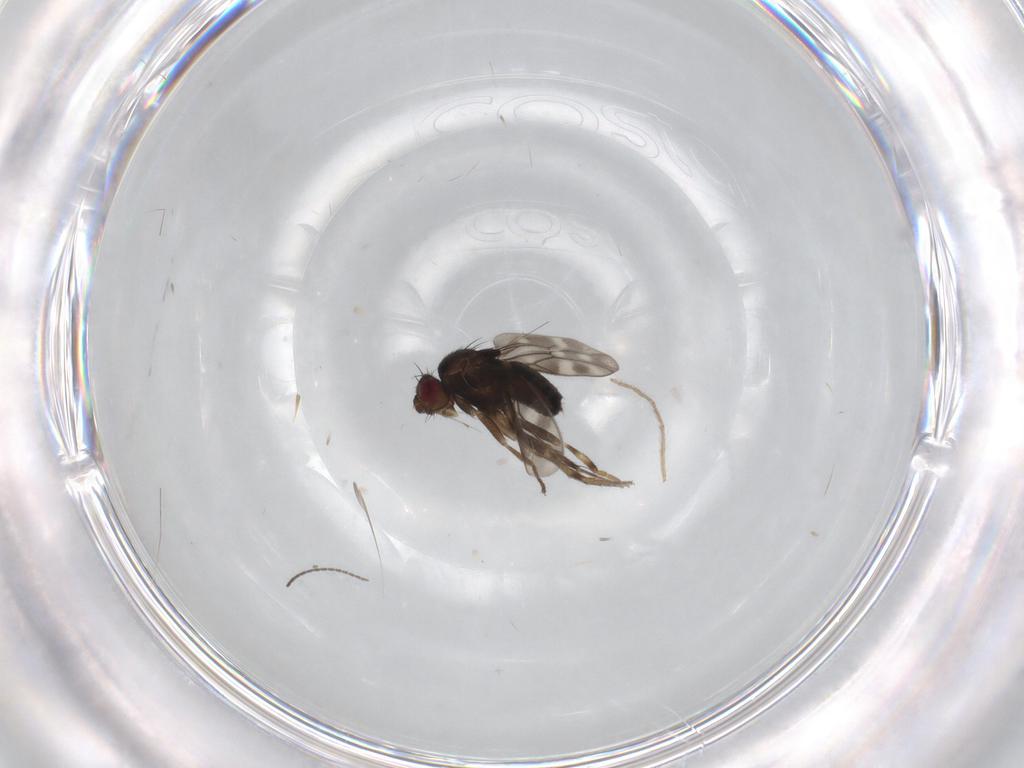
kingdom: Animalia
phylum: Arthropoda
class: Insecta
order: Diptera
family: Sphaeroceridae
